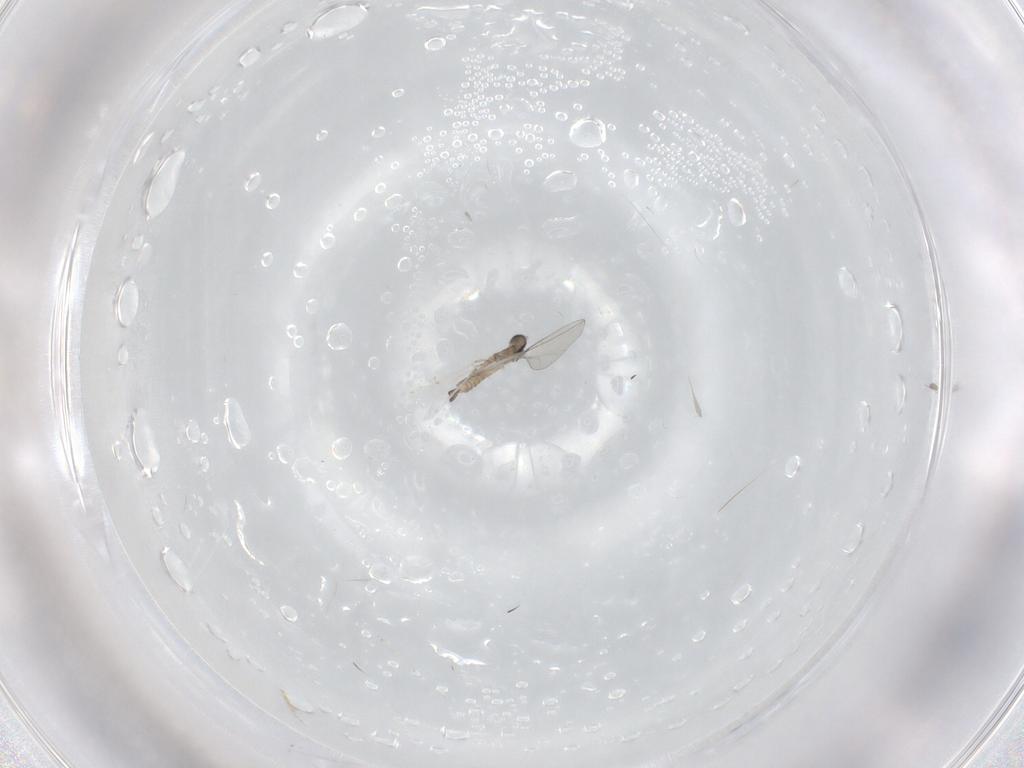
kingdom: Animalia
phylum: Arthropoda
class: Insecta
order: Diptera
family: Cecidomyiidae
